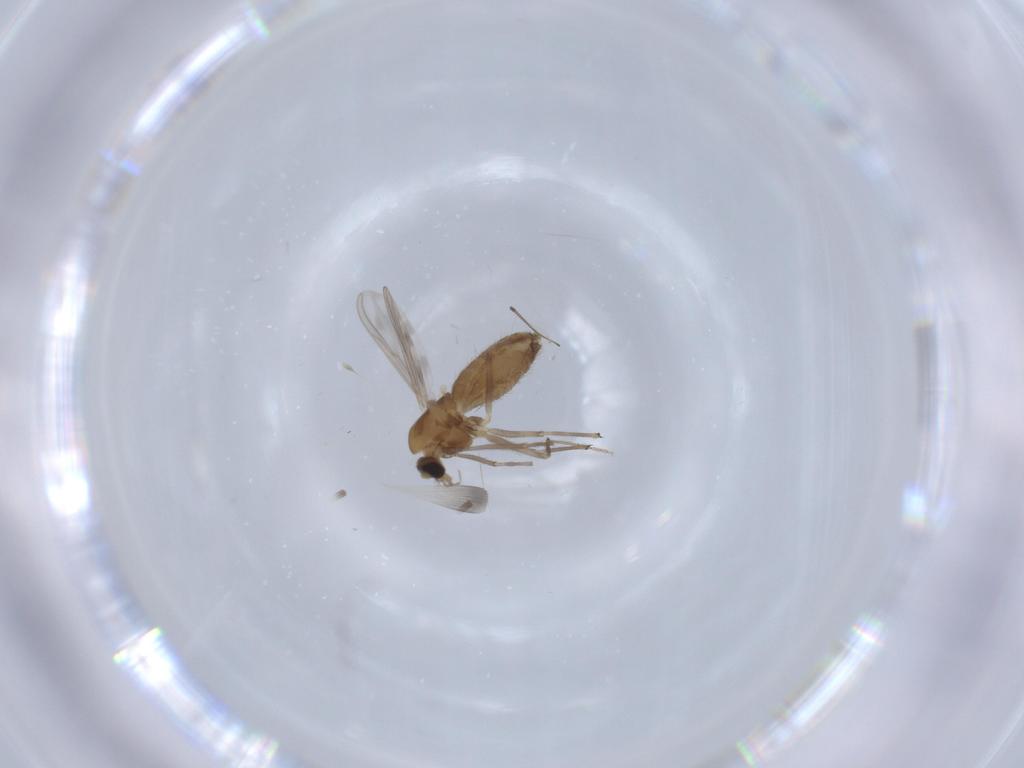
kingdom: Animalia
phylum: Arthropoda
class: Insecta
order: Diptera
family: Chironomidae
